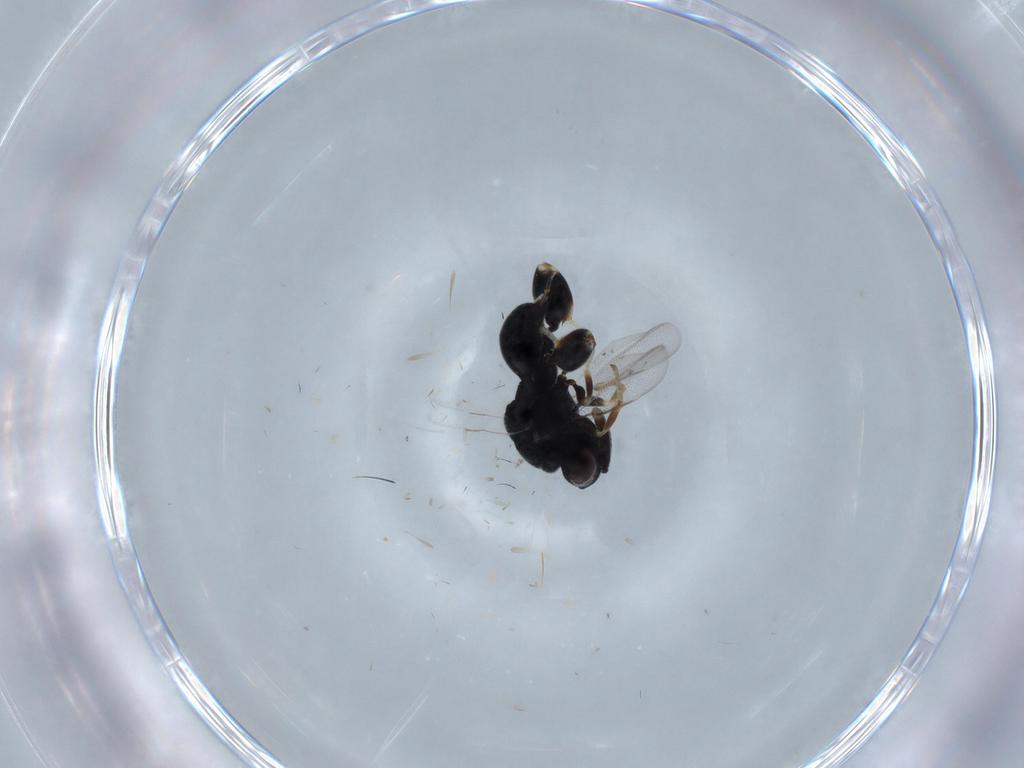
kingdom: Animalia
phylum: Arthropoda
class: Insecta
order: Hymenoptera
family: Chalcididae
